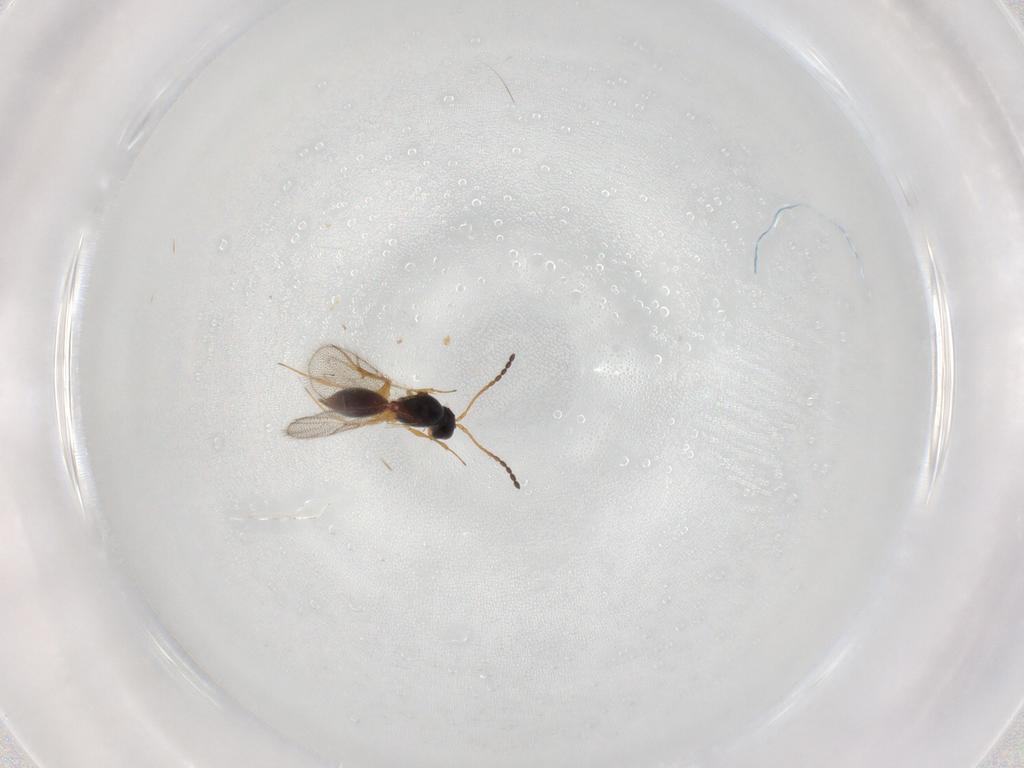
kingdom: Animalia
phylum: Arthropoda
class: Insecta
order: Hymenoptera
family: Figitidae
